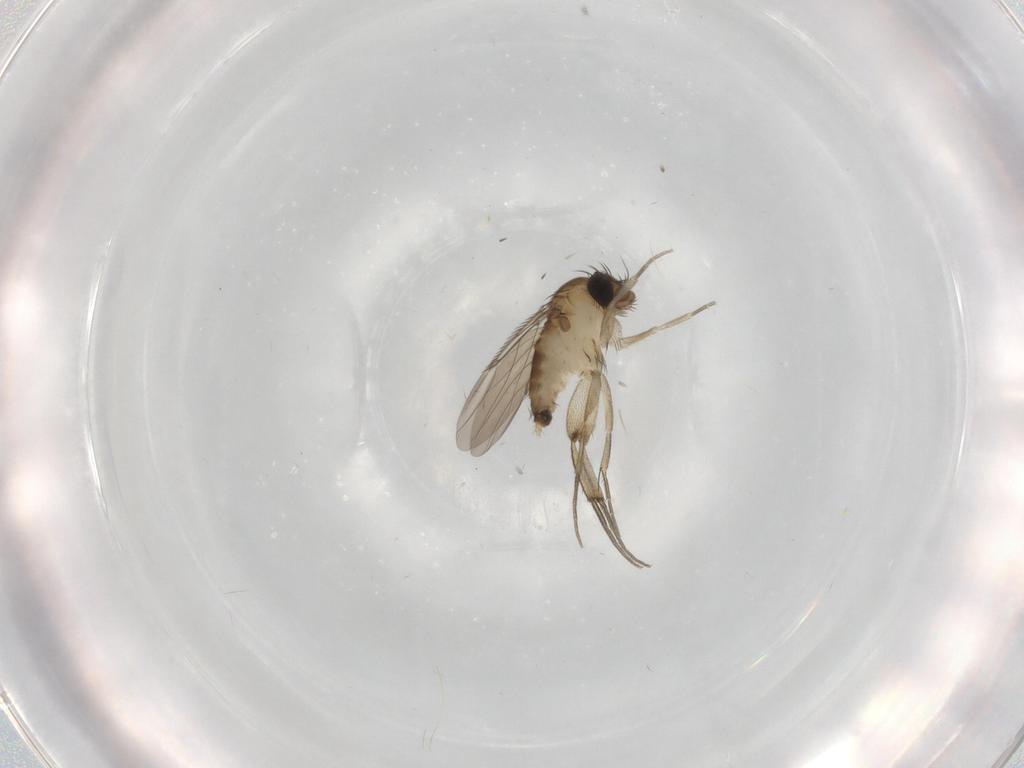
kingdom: Animalia
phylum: Arthropoda
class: Insecta
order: Diptera
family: Phoridae
